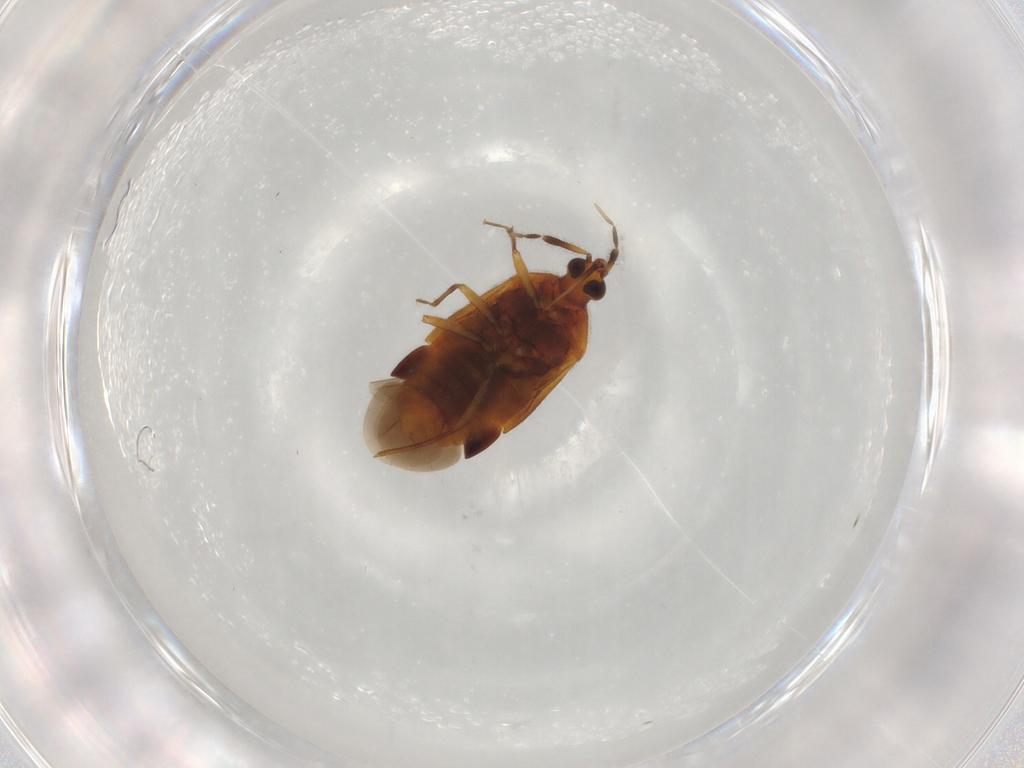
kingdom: Animalia
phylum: Arthropoda
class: Insecta
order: Hemiptera
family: Anthocoridae
